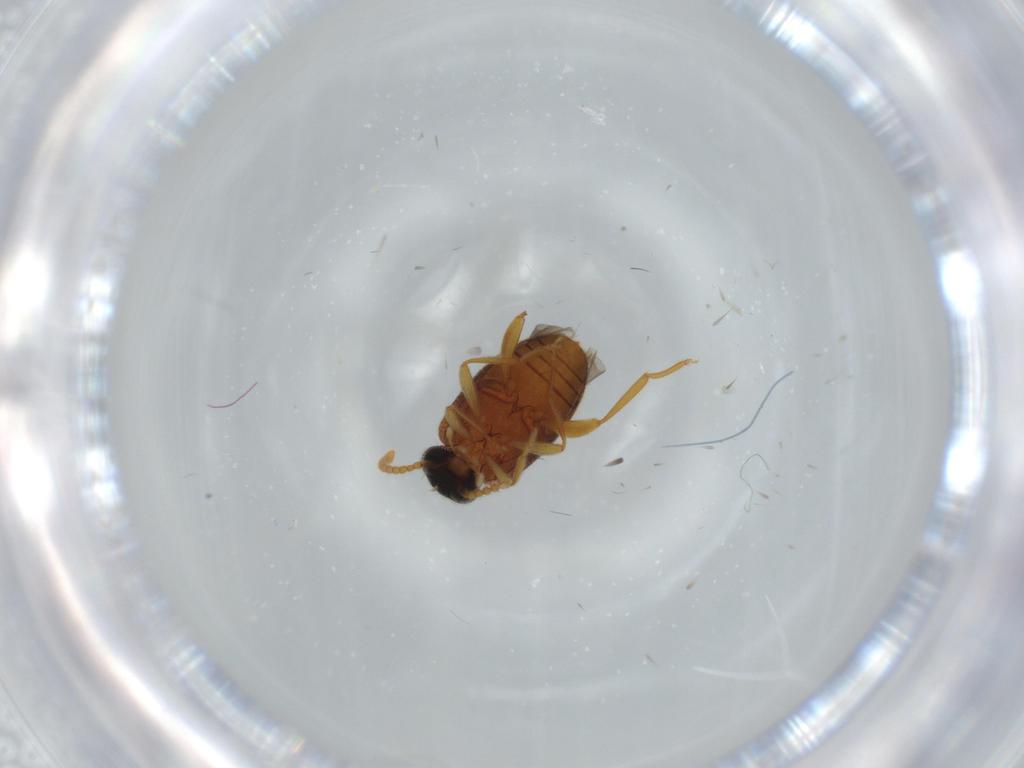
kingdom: Animalia
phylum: Arthropoda
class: Insecta
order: Coleoptera
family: Aderidae
